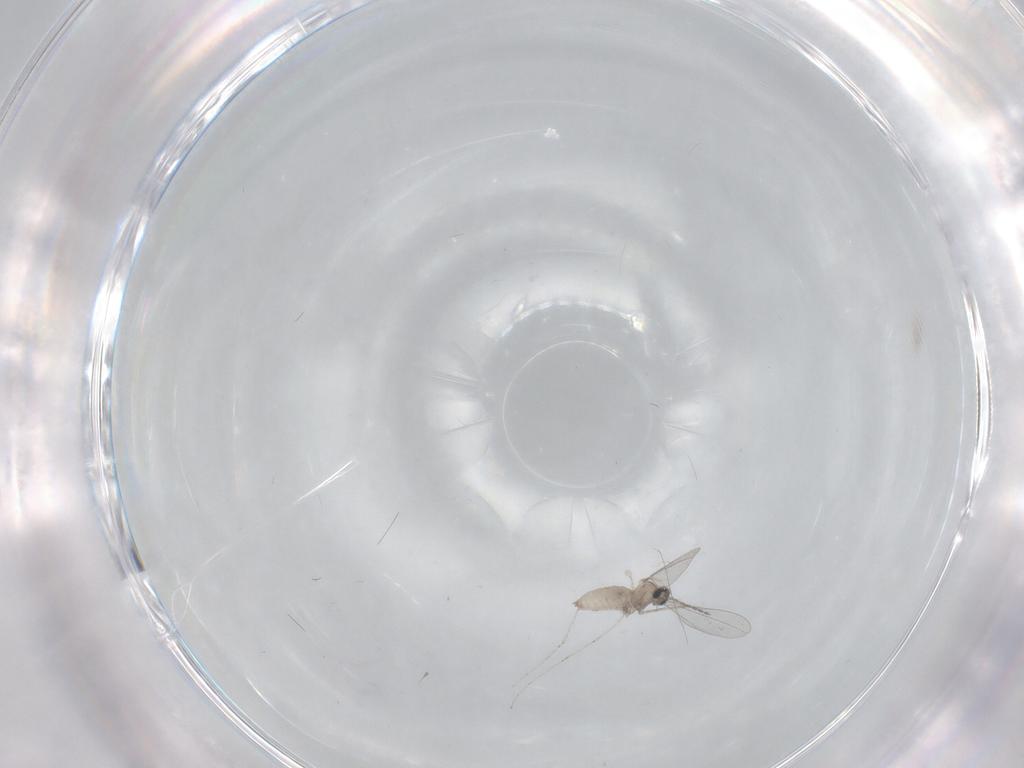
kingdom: Animalia
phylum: Arthropoda
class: Insecta
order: Diptera
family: Cecidomyiidae
